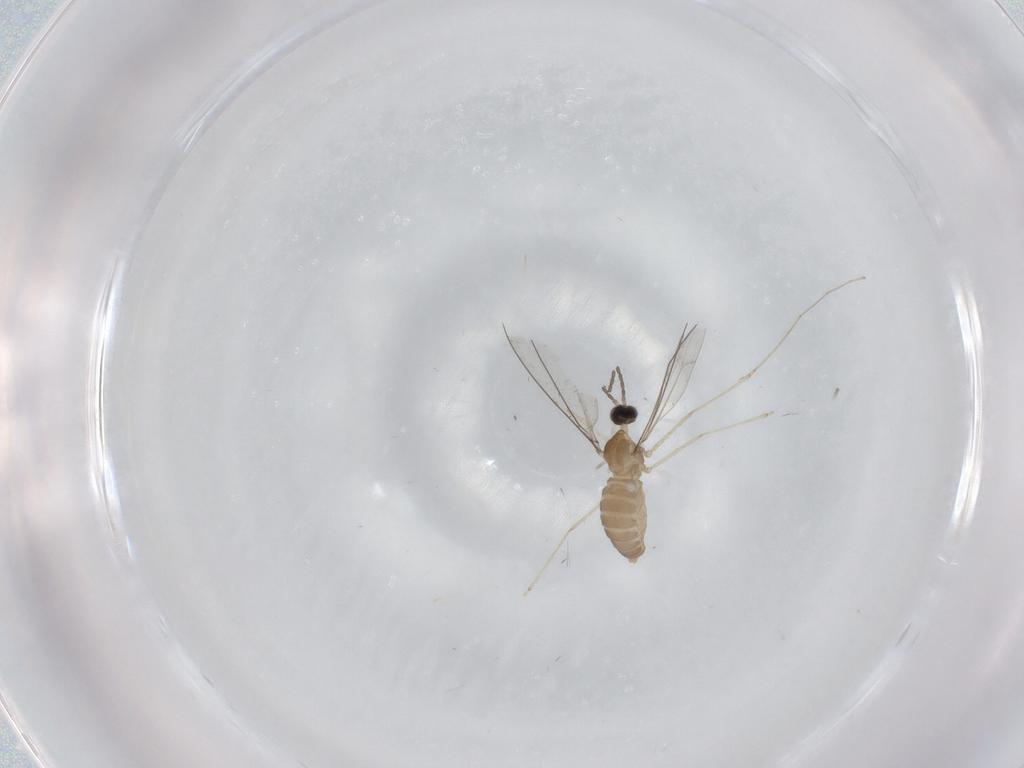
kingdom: Animalia
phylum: Arthropoda
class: Insecta
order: Diptera
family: Cecidomyiidae
